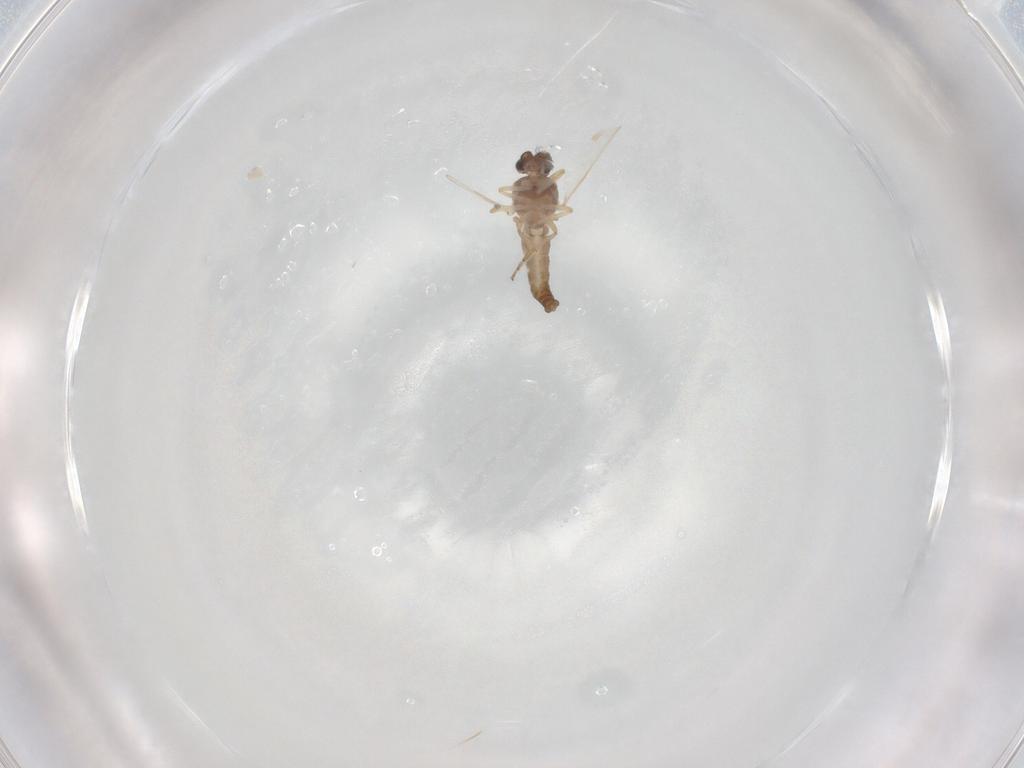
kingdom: Animalia
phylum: Arthropoda
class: Insecta
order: Diptera
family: Ceratopogonidae
